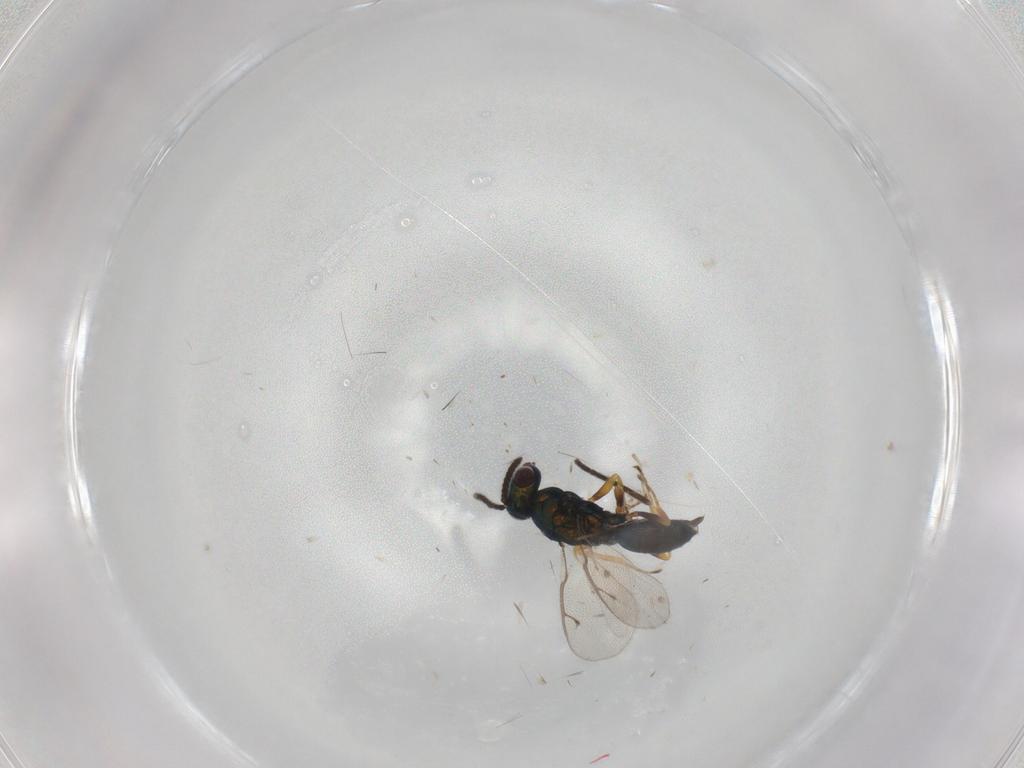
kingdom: Animalia
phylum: Arthropoda
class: Insecta
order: Hymenoptera
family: Pteromalidae
